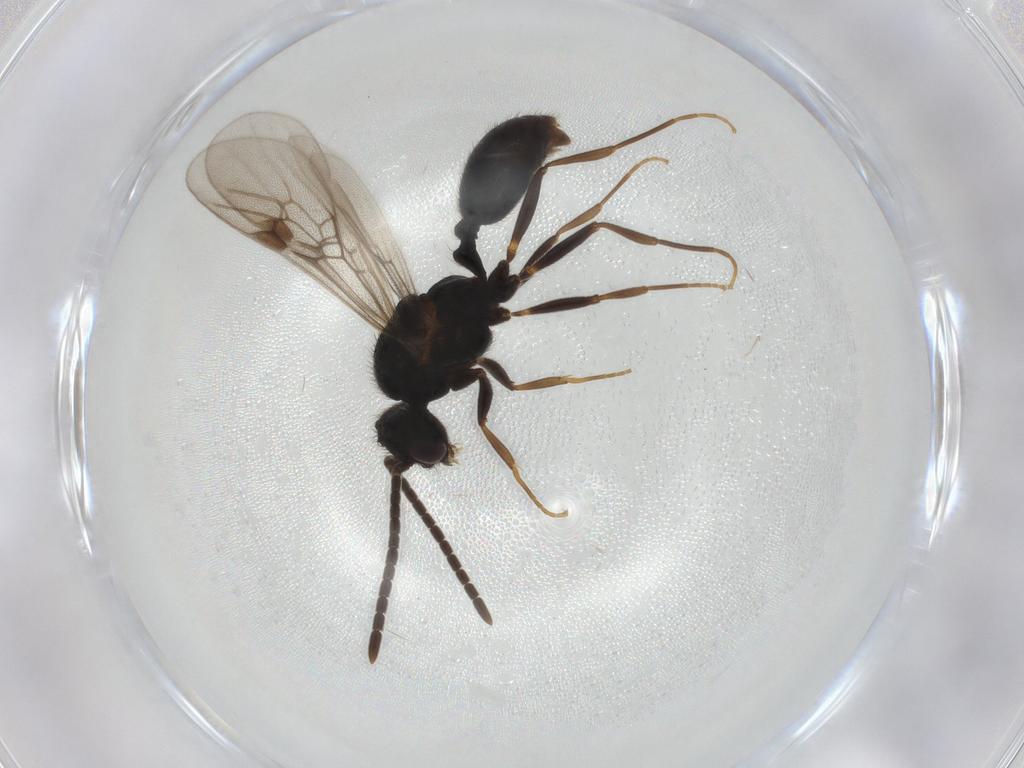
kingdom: Animalia
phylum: Arthropoda
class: Insecta
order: Hymenoptera
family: Formicidae
